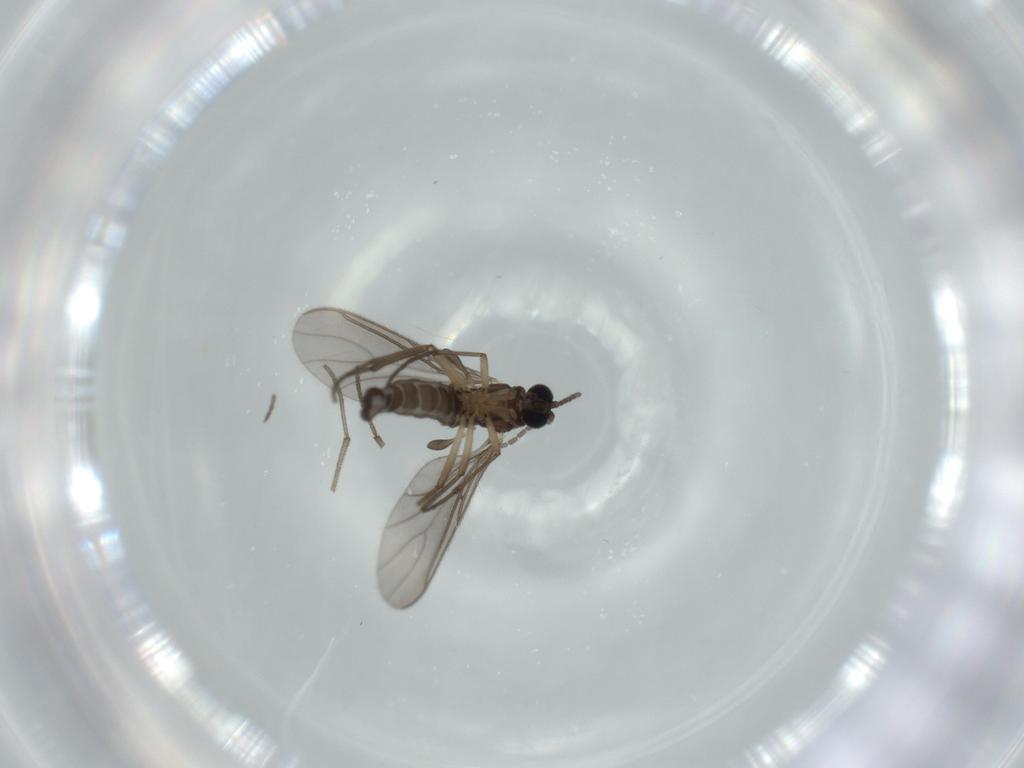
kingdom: Animalia
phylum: Arthropoda
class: Insecta
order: Diptera
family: Sciaridae
